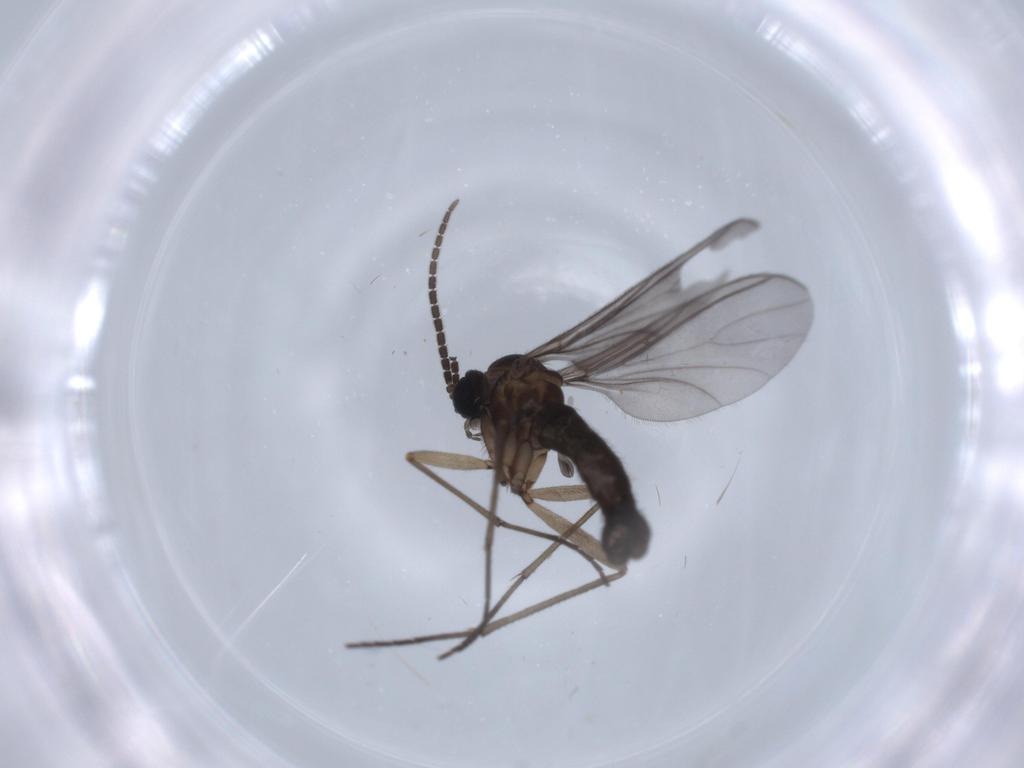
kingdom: Animalia
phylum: Arthropoda
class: Insecta
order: Diptera
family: Sciaridae
